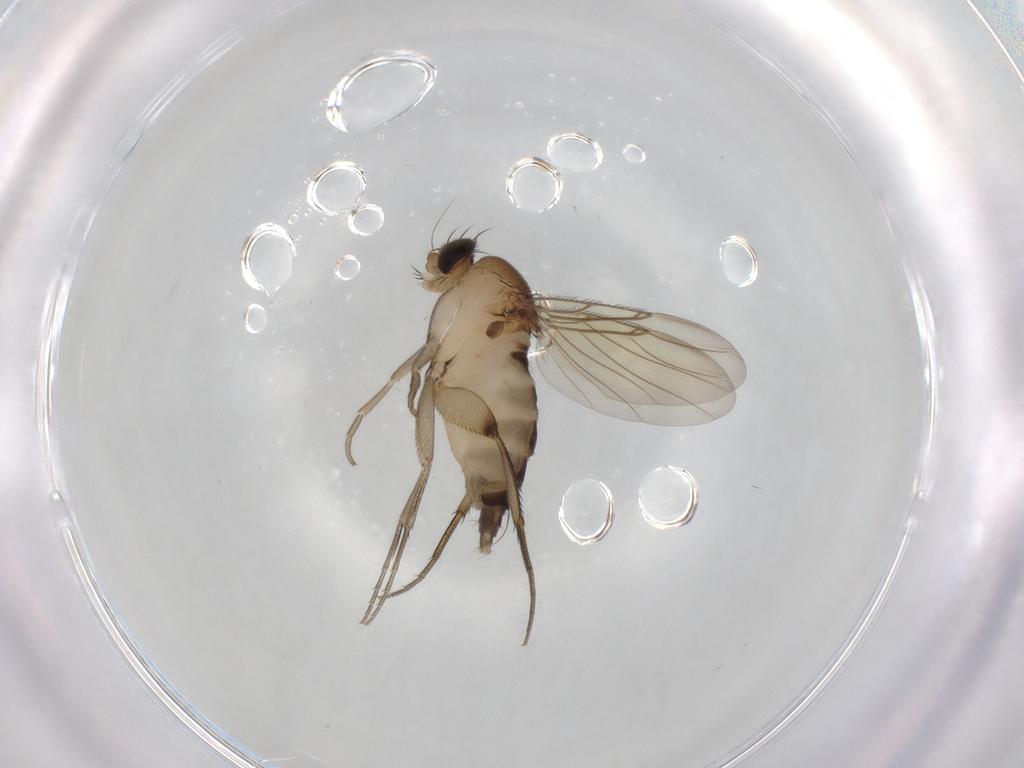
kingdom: Animalia
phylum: Arthropoda
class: Insecta
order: Diptera
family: Phoridae
